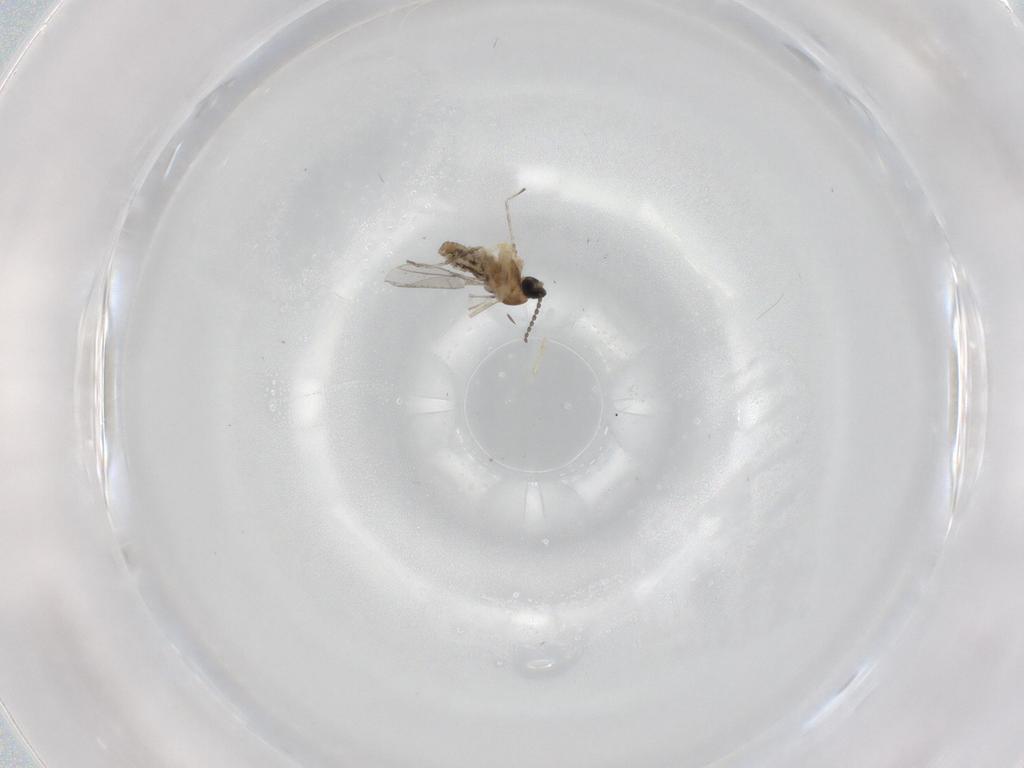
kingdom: Animalia
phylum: Arthropoda
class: Insecta
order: Diptera
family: Cecidomyiidae
